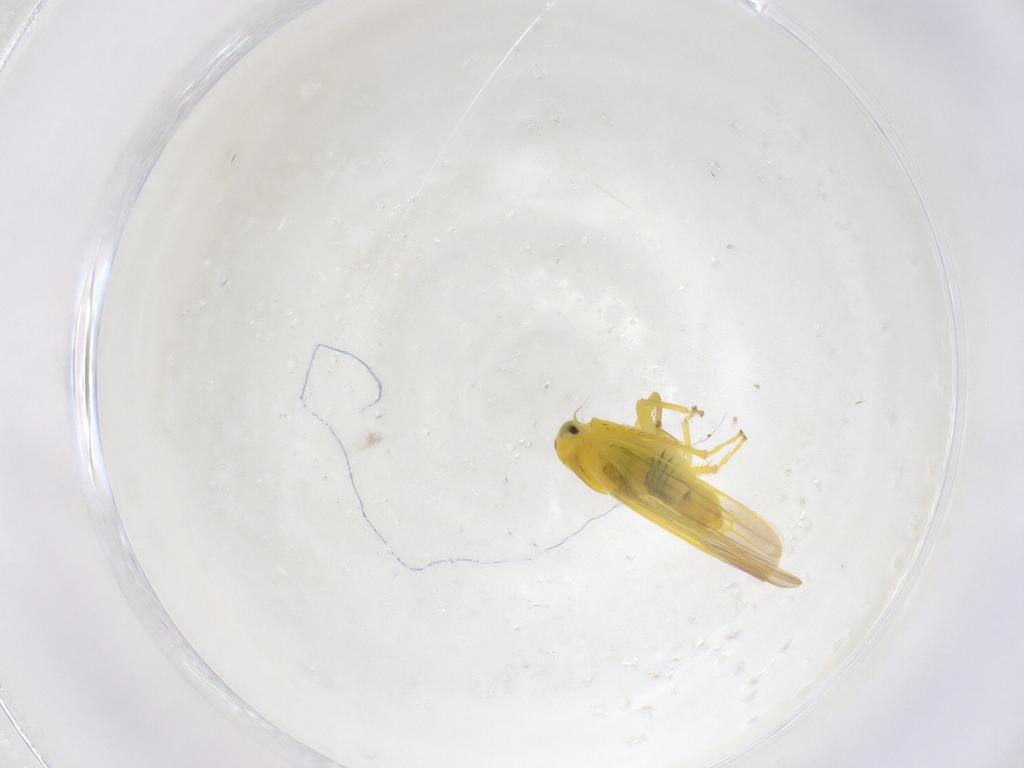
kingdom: Animalia
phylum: Arthropoda
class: Insecta
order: Hemiptera
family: Cicadellidae
